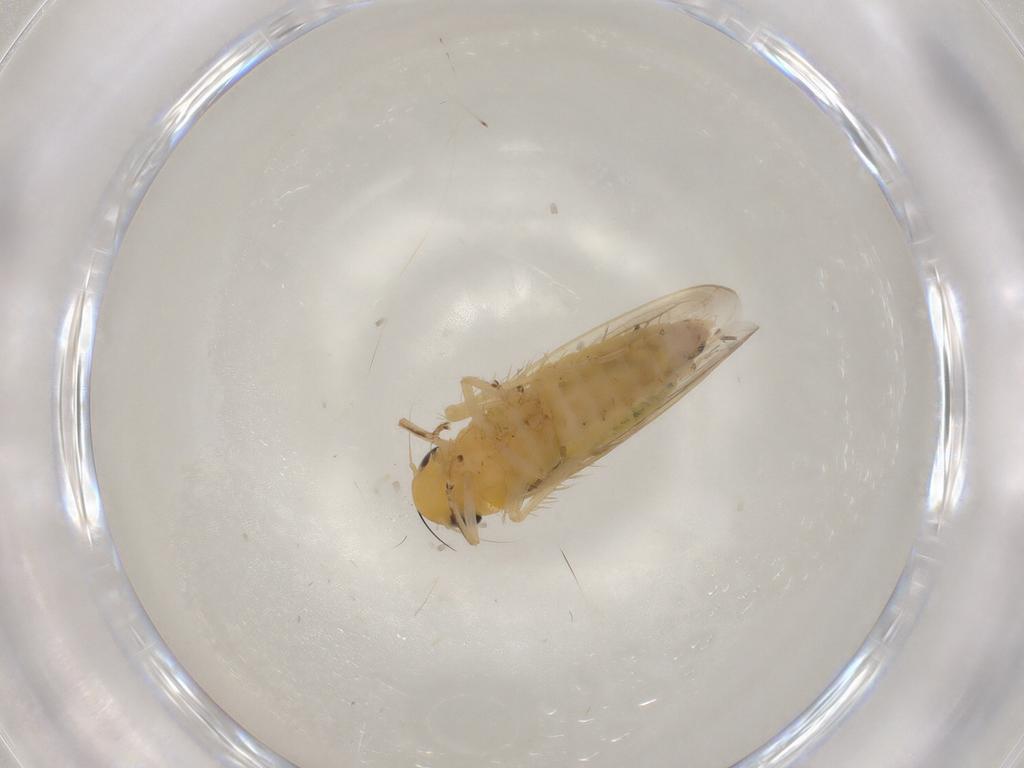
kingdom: Animalia
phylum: Arthropoda
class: Insecta
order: Hemiptera
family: Cicadellidae
